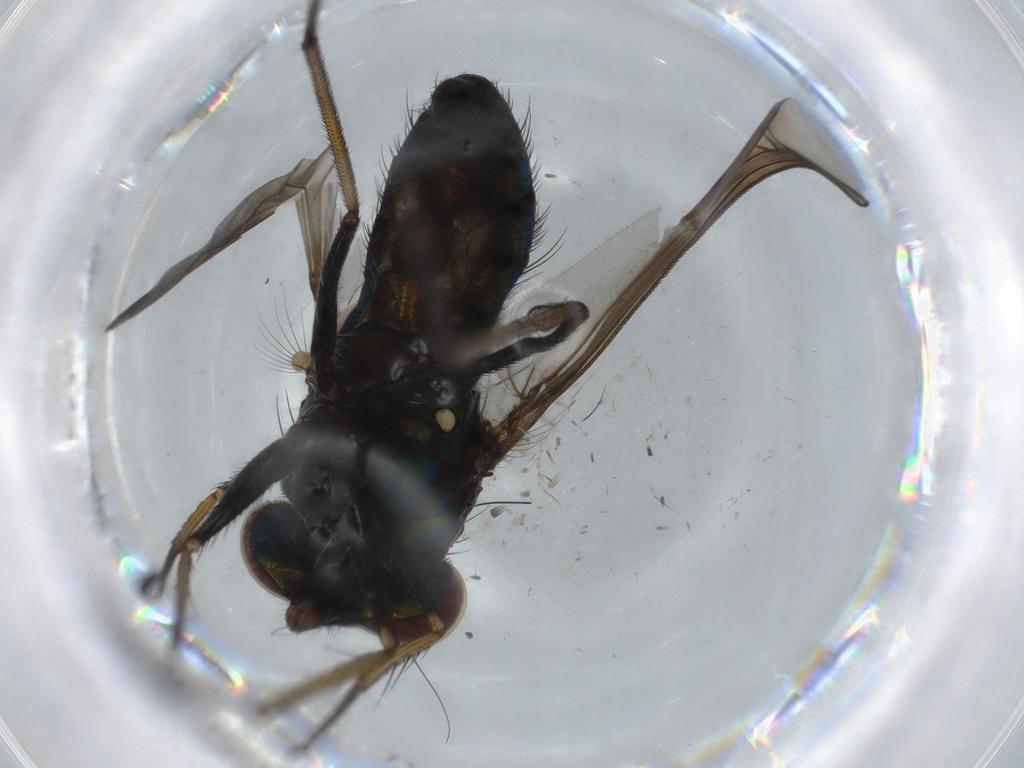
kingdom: Animalia
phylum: Arthropoda
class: Insecta
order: Diptera
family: Dolichopodidae
